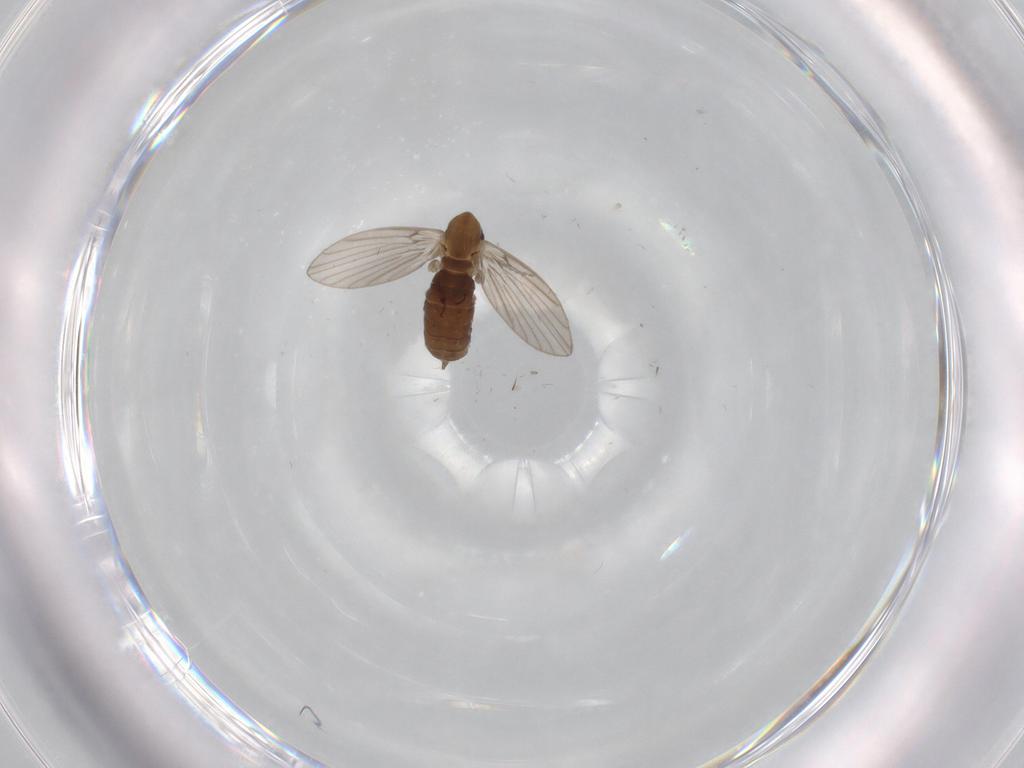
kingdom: Animalia
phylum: Arthropoda
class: Insecta
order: Diptera
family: Psychodidae
